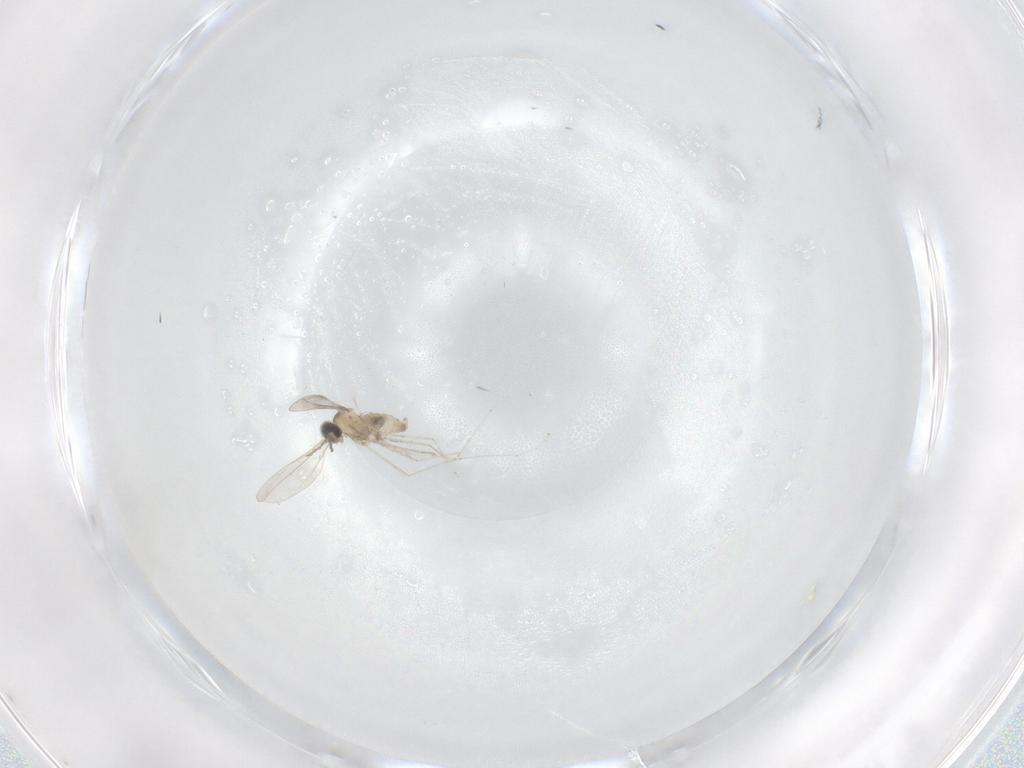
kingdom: Animalia
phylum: Arthropoda
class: Insecta
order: Diptera
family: Cecidomyiidae
